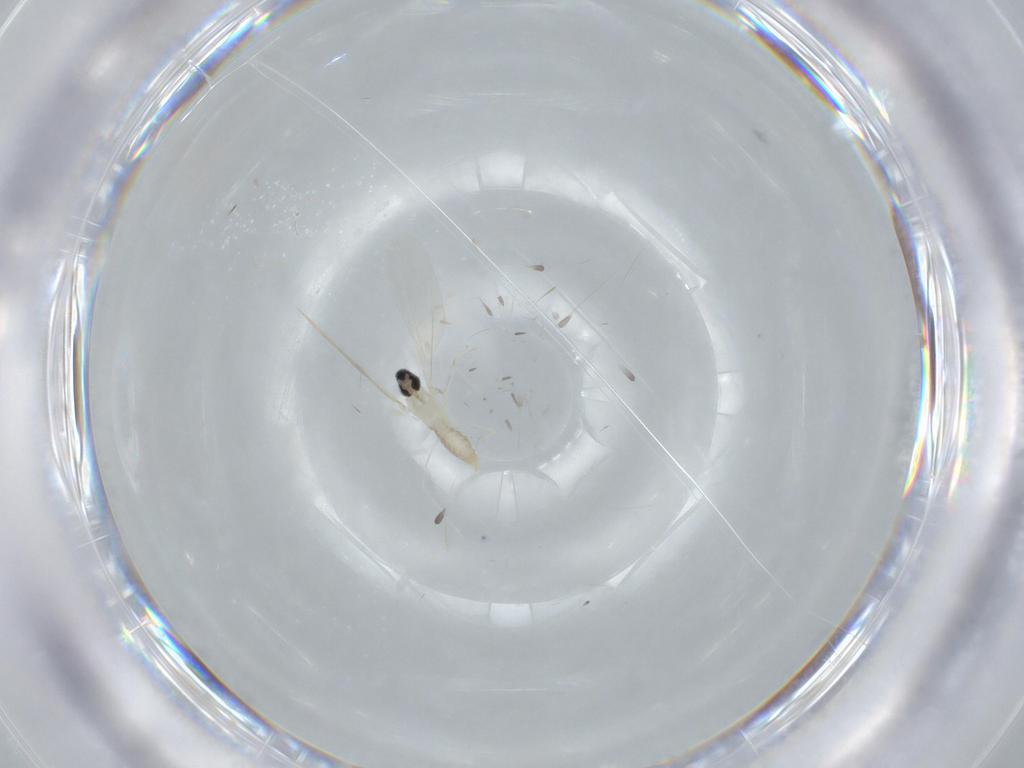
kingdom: Animalia
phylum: Arthropoda
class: Insecta
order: Diptera
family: Cecidomyiidae
